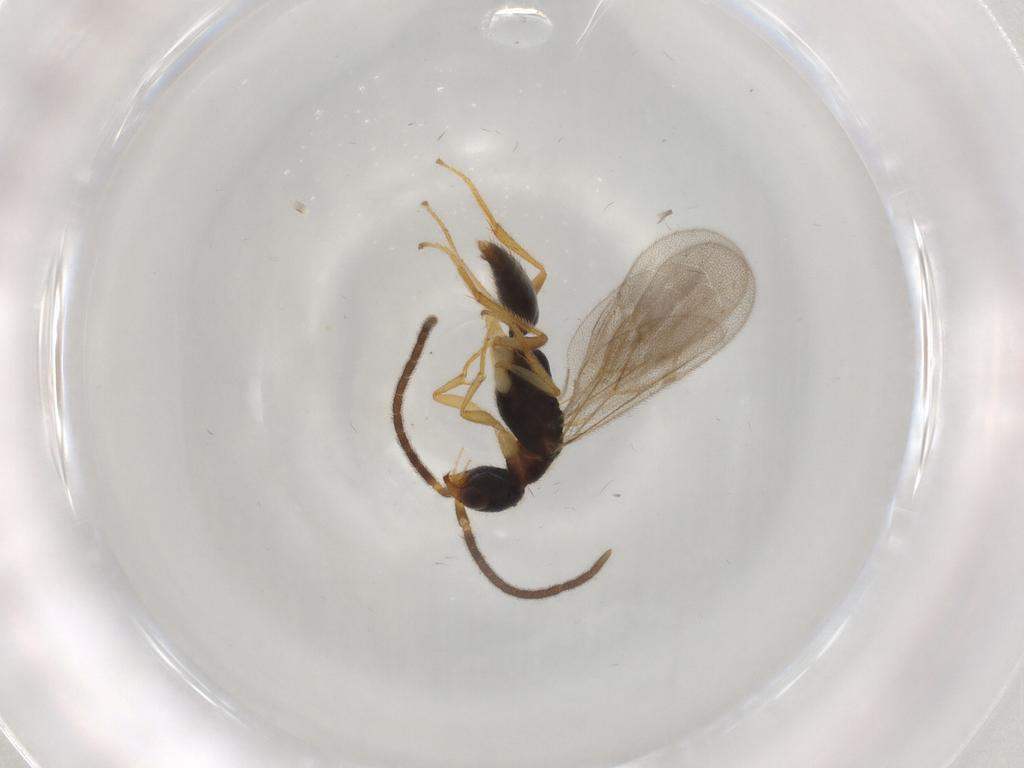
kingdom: Animalia
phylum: Arthropoda
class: Insecta
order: Hymenoptera
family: Bethylidae
